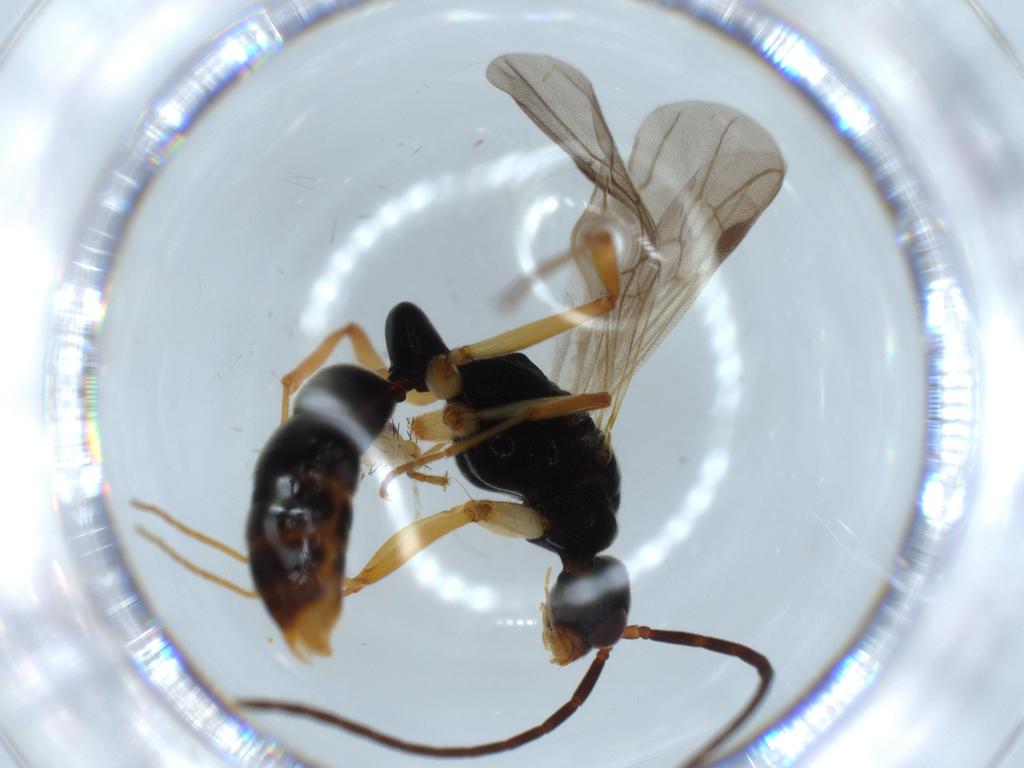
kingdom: Animalia
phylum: Arthropoda
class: Insecta
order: Hymenoptera
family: Formicidae
